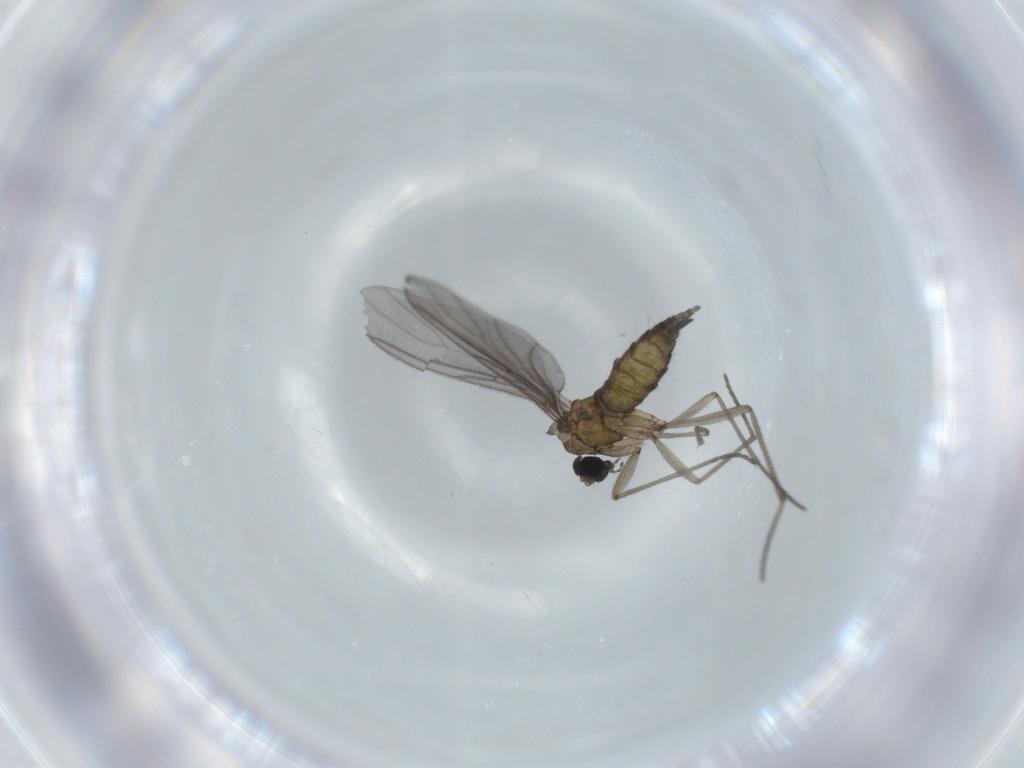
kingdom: Animalia
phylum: Arthropoda
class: Insecta
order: Diptera
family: Sciaridae
